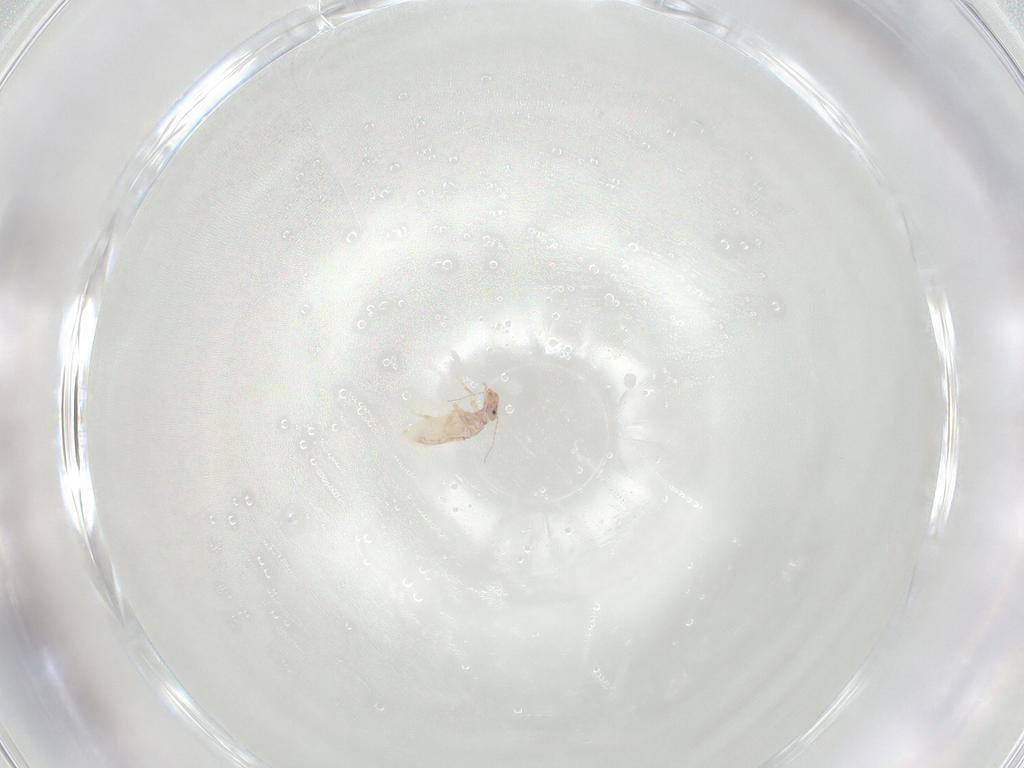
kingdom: Animalia
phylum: Arthropoda
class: Insecta
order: Psocodea
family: Liposcelididae
